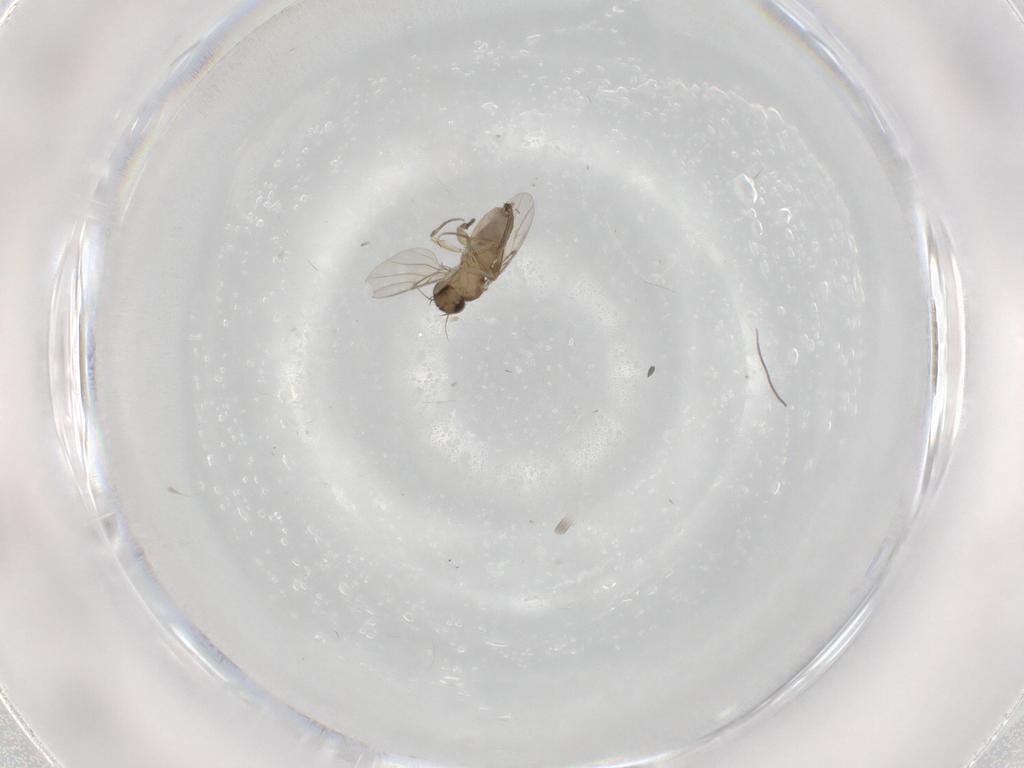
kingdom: Animalia
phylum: Arthropoda
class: Insecta
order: Diptera
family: Phoridae
